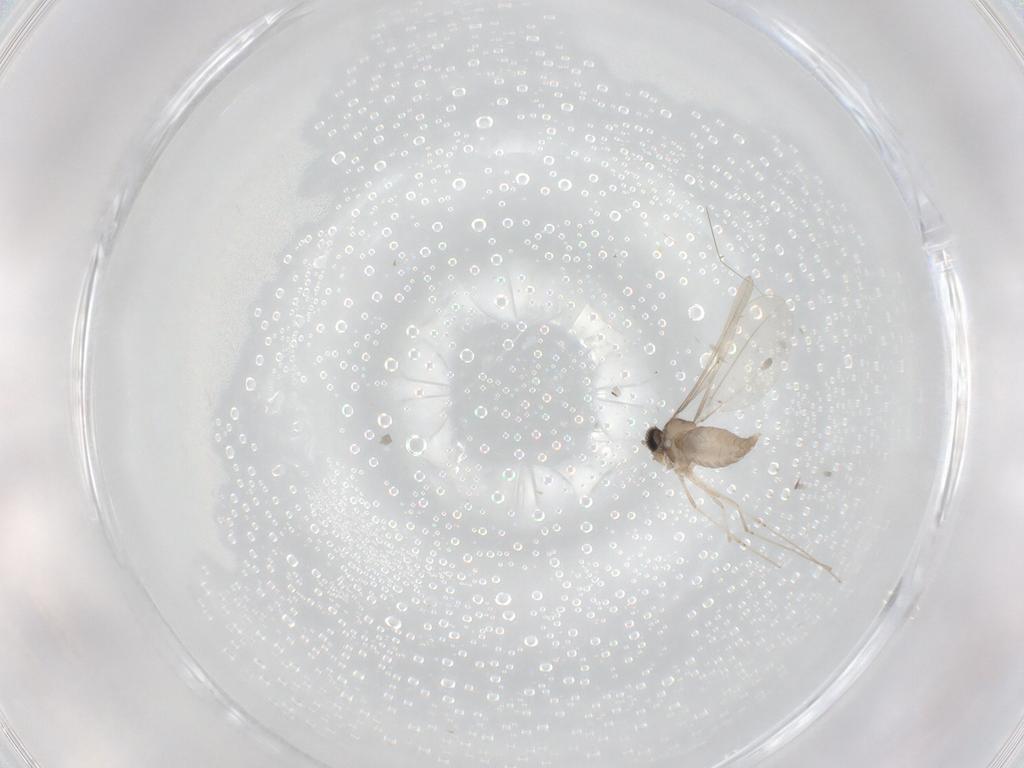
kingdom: Animalia
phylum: Arthropoda
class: Insecta
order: Diptera
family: Cecidomyiidae
